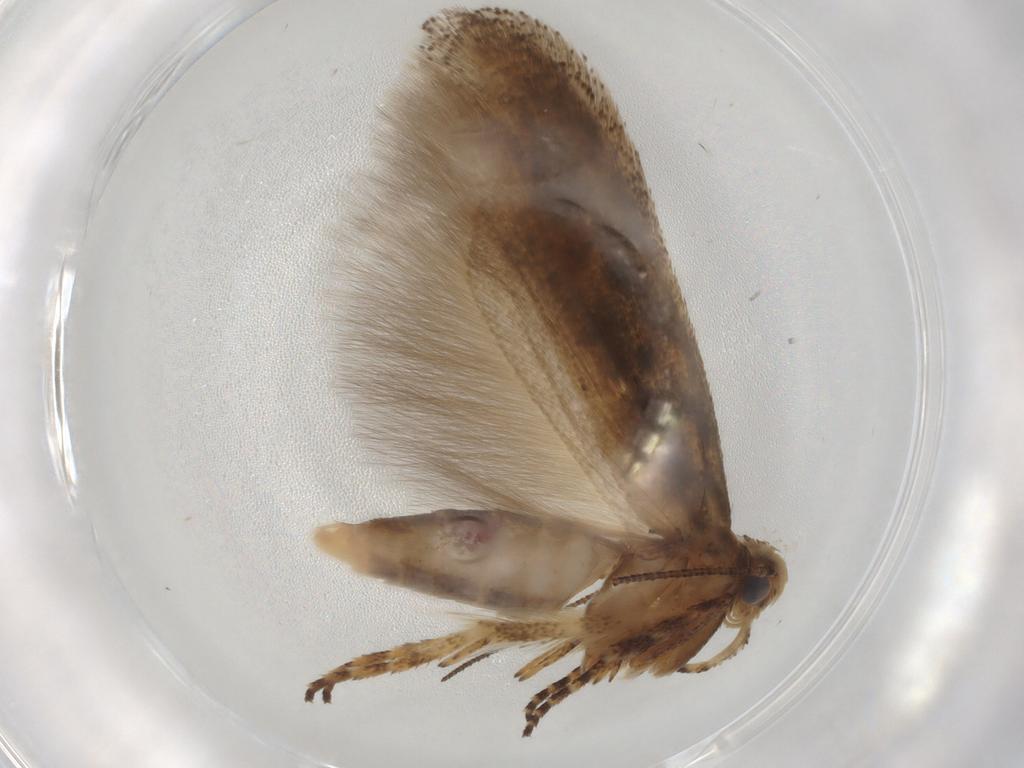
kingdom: Animalia
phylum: Arthropoda
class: Insecta
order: Lepidoptera
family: Gelechiidae
